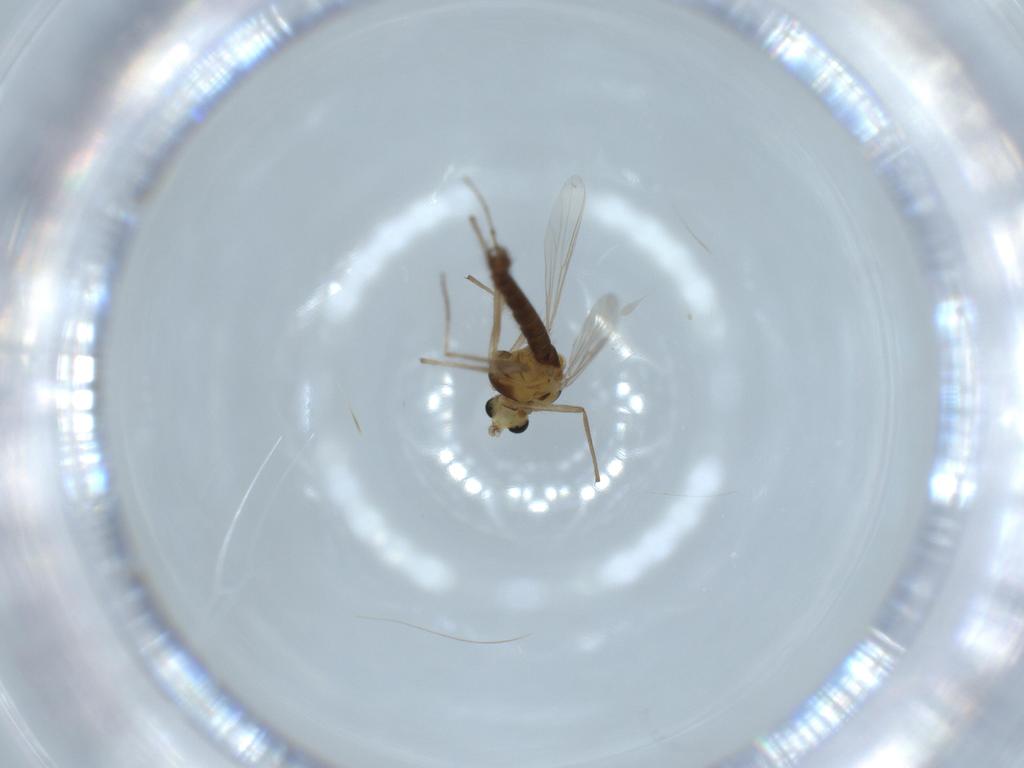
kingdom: Animalia
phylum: Arthropoda
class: Insecta
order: Diptera
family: Chironomidae
